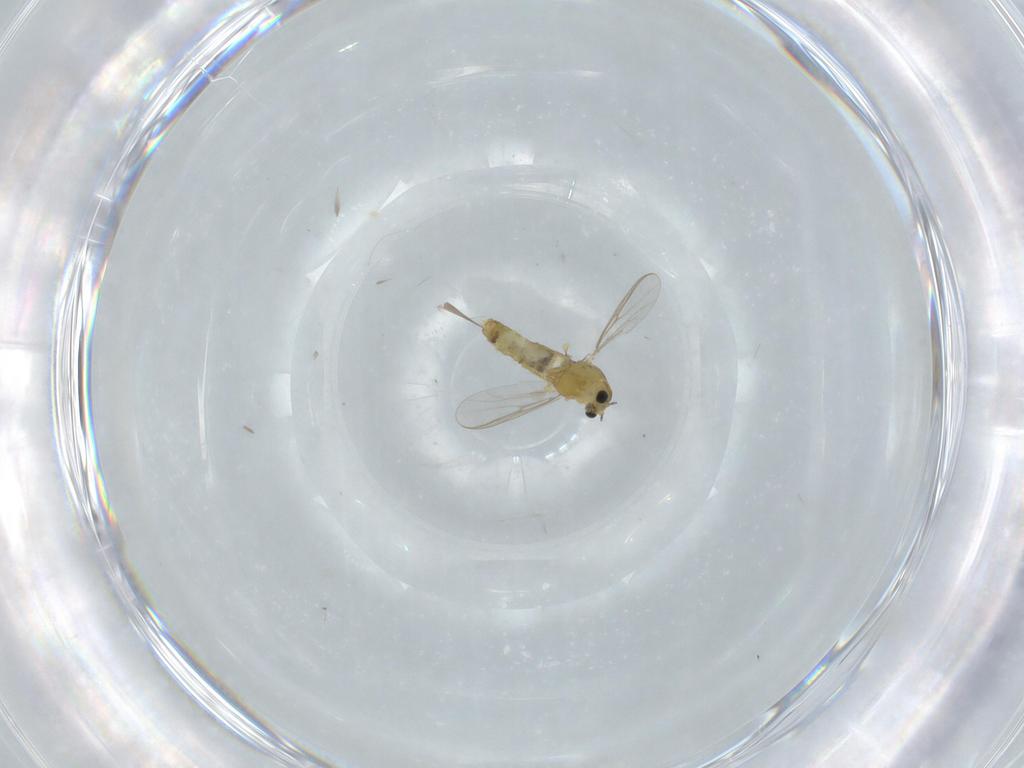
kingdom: Animalia
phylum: Arthropoda
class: Insecta
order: Diptera
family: Chironomidae
